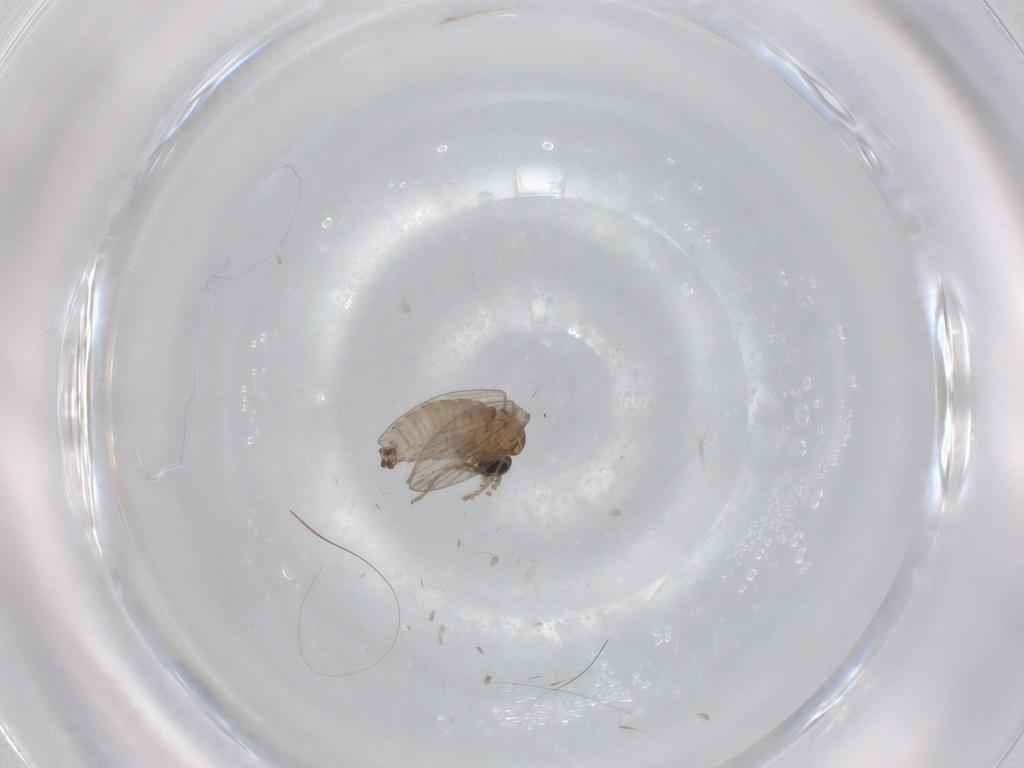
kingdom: Animalia
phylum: Arthropoda
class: Insecta
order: Diptera
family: Psychodidae
